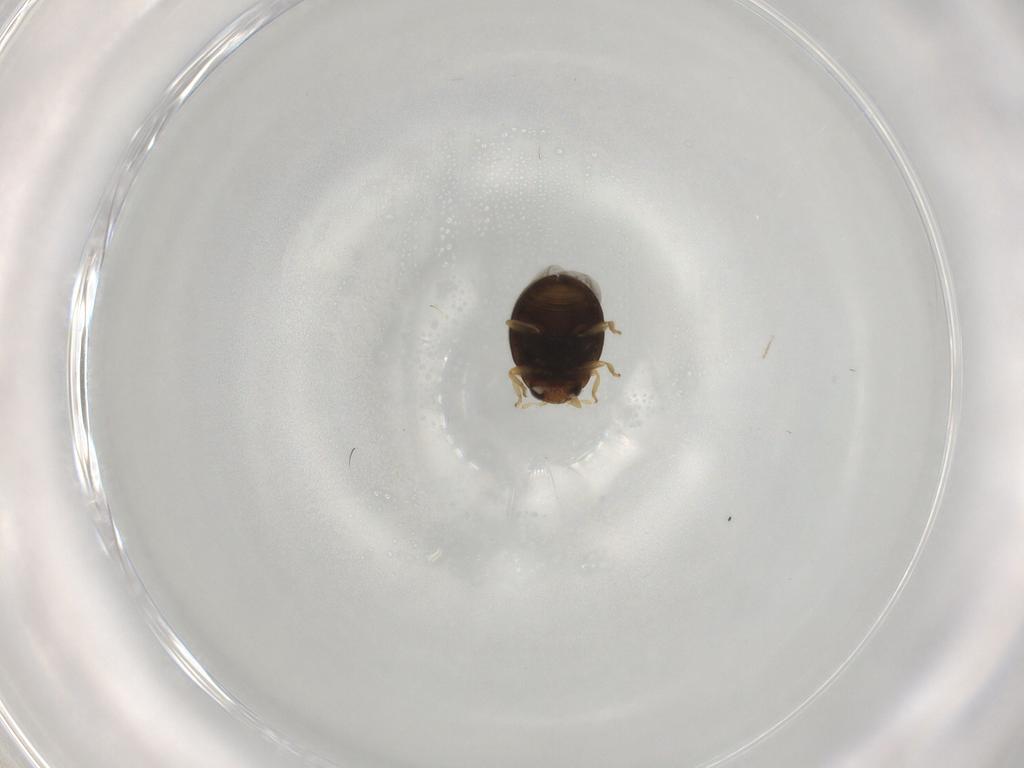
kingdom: Animalia
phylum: Arthropoda
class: Insecta
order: Coleoptera
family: Coccinellidae
